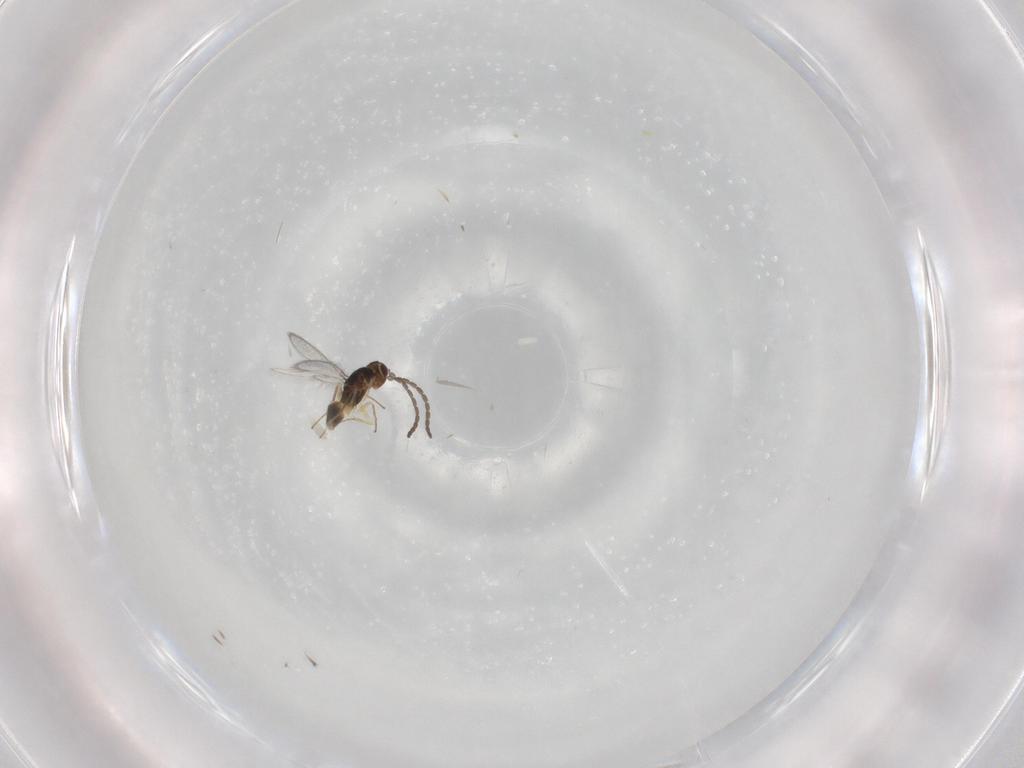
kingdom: Animalia
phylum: Arthropoda
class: Insecta
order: Hymenoptera
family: Mymaridae
